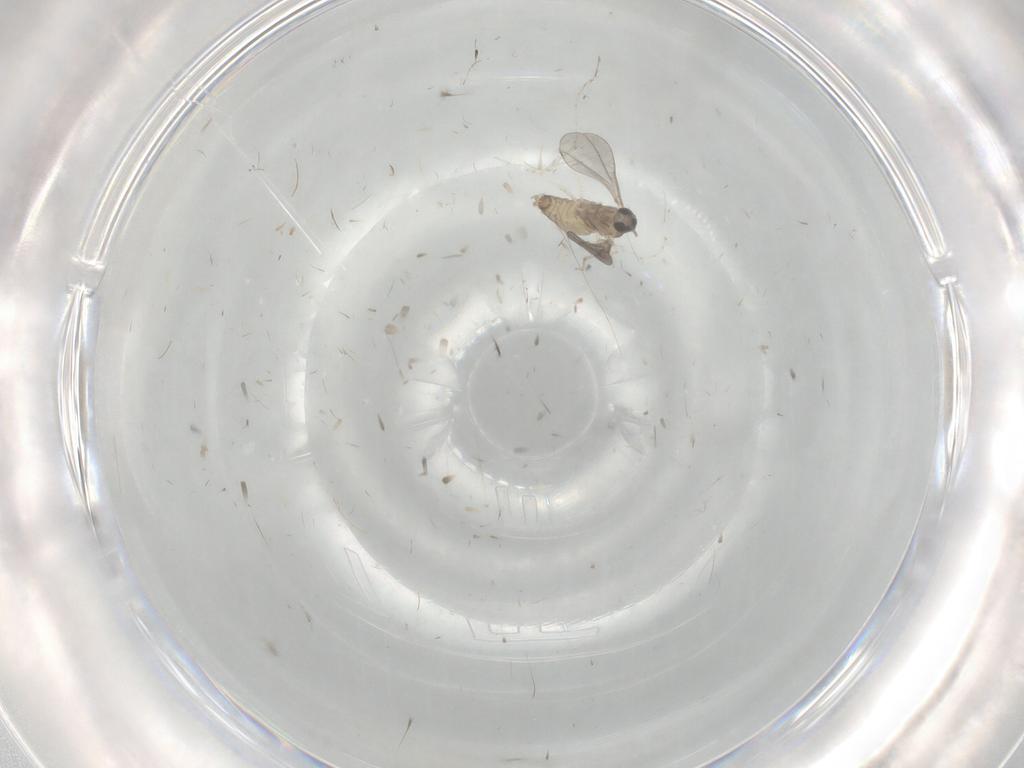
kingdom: Animalia
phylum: Arthropoda
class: Insecta
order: Diptera
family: Cecidomyiidae
